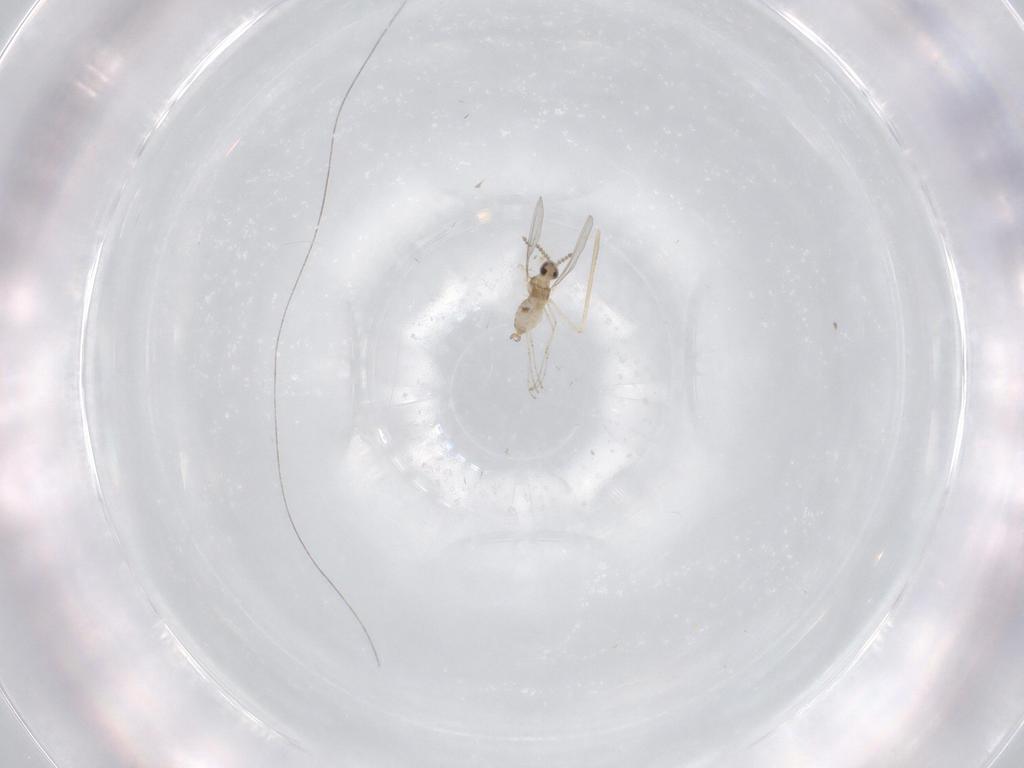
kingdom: Animalia
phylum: Arthropoda
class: Insecta
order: Diptera
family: Cecidomyiidae
